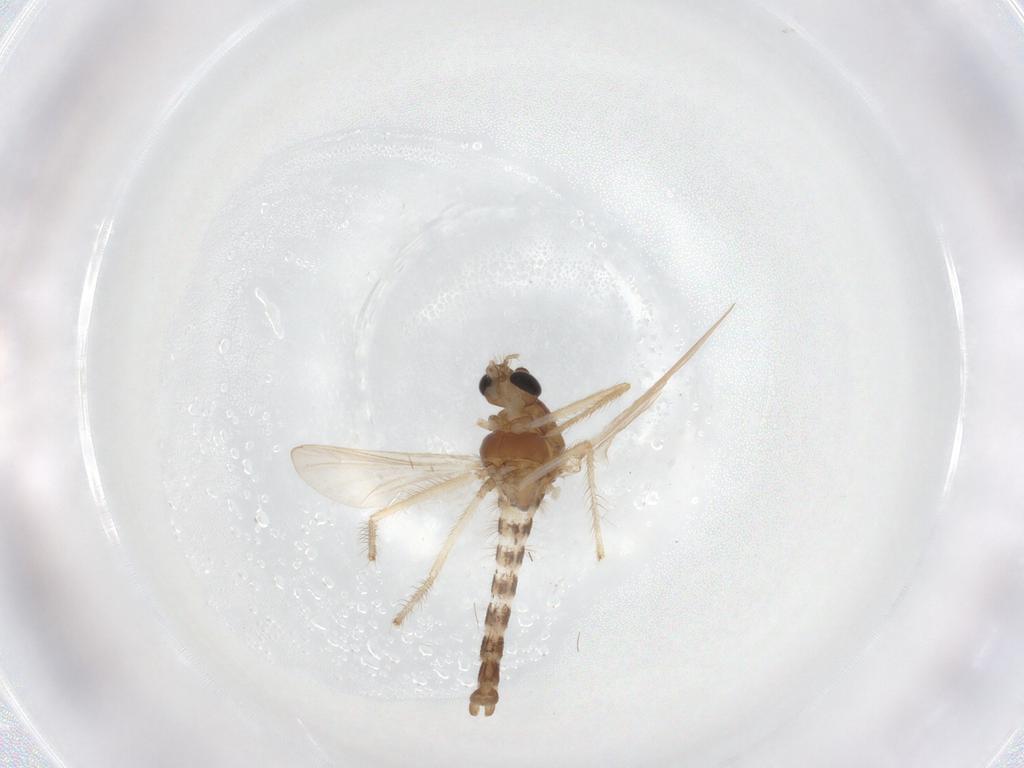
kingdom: Animalia
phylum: Arthropoda
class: Insecta
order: Diptera
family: Chironomidae
